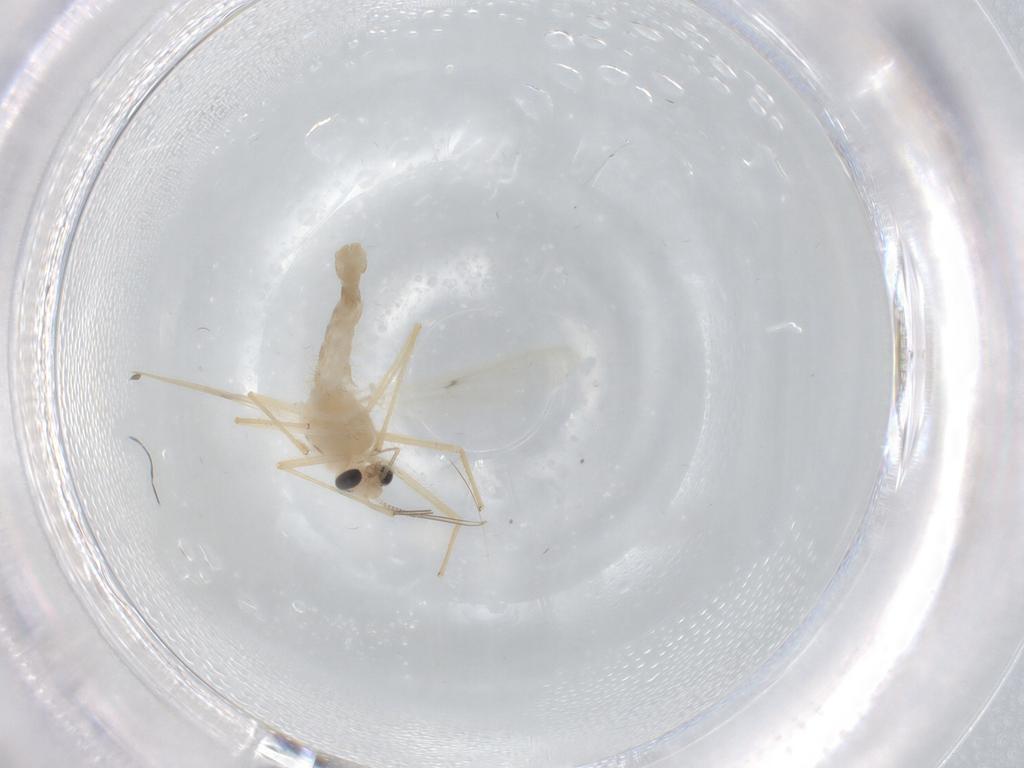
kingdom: Animalia
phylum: Arthropoda
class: Insecta
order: Diptera
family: Chironomidae
